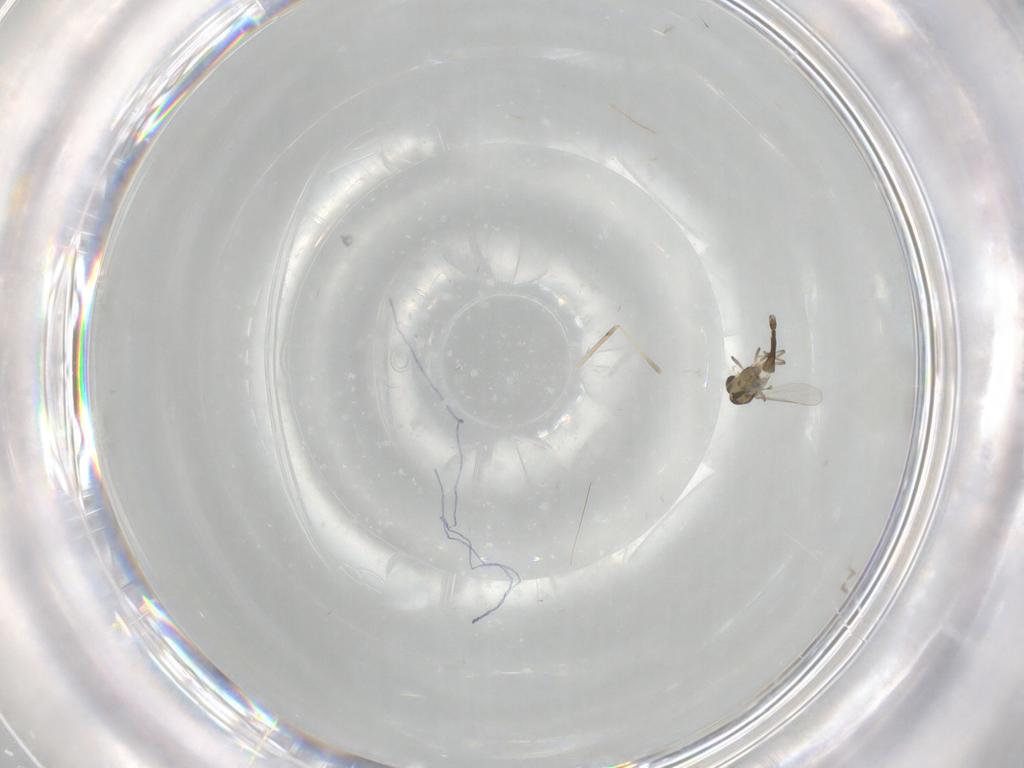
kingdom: Animalia
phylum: Arthropoda
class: Insecta
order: Diptera
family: Chironomidae
